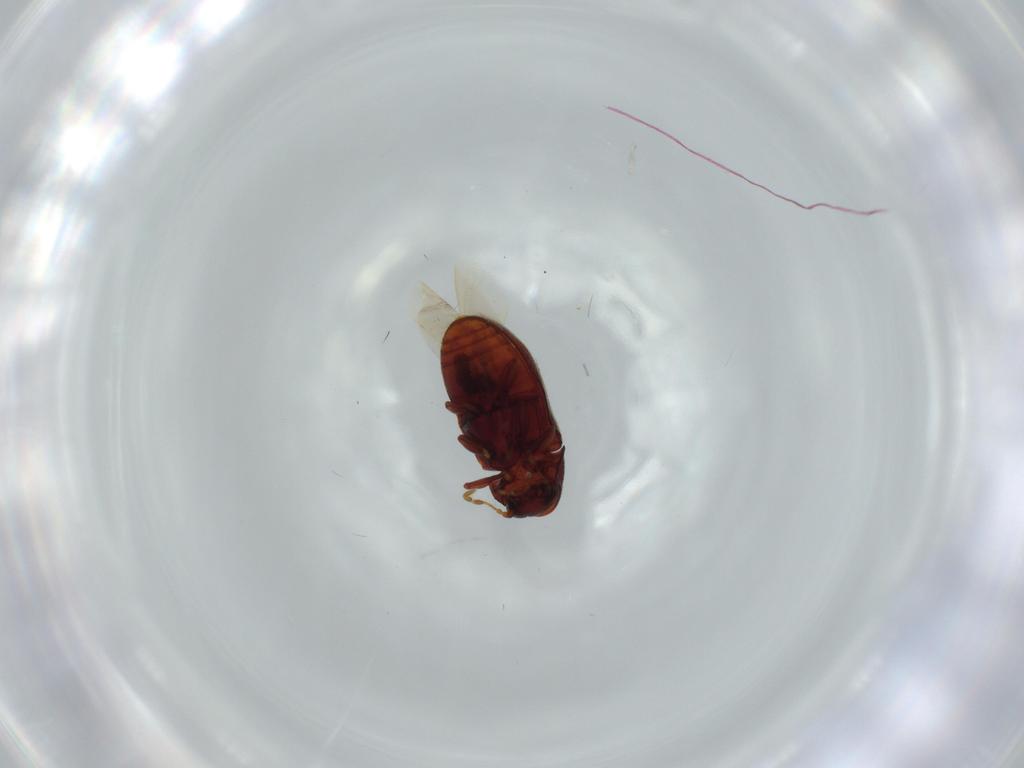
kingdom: Animalia
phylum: Arthropoda
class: Insecta
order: Coleoptera
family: Ptinidae
